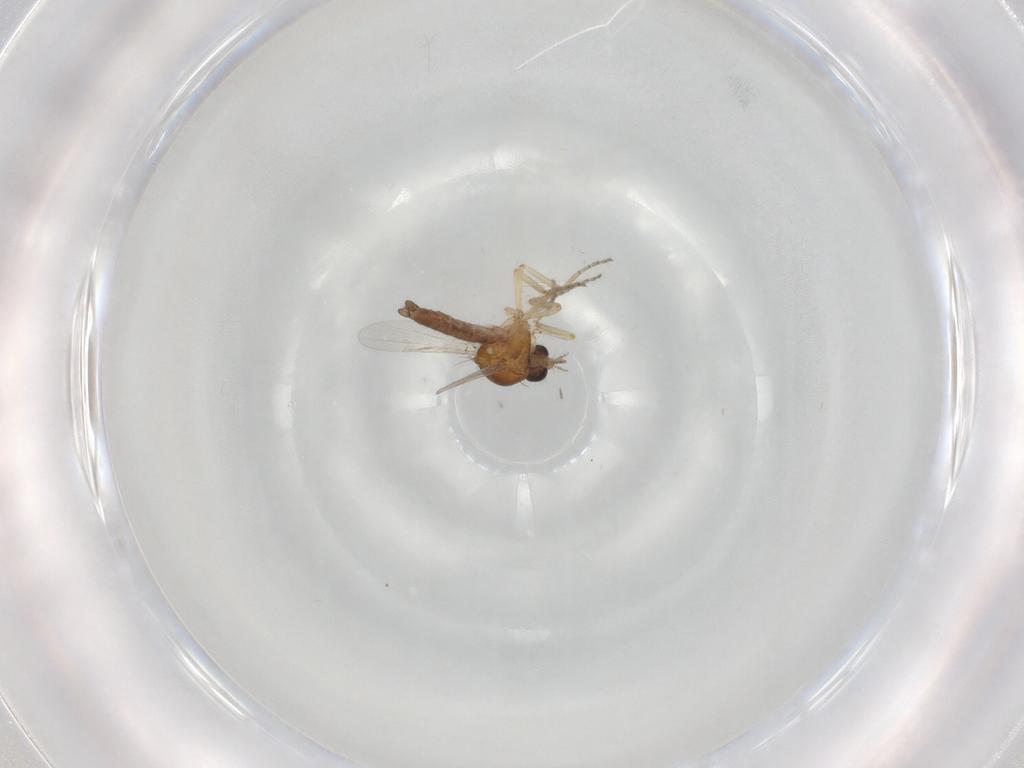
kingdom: Animalia
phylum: Arthropoda
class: Insecta
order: Diptera
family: Ceratopogonidae
